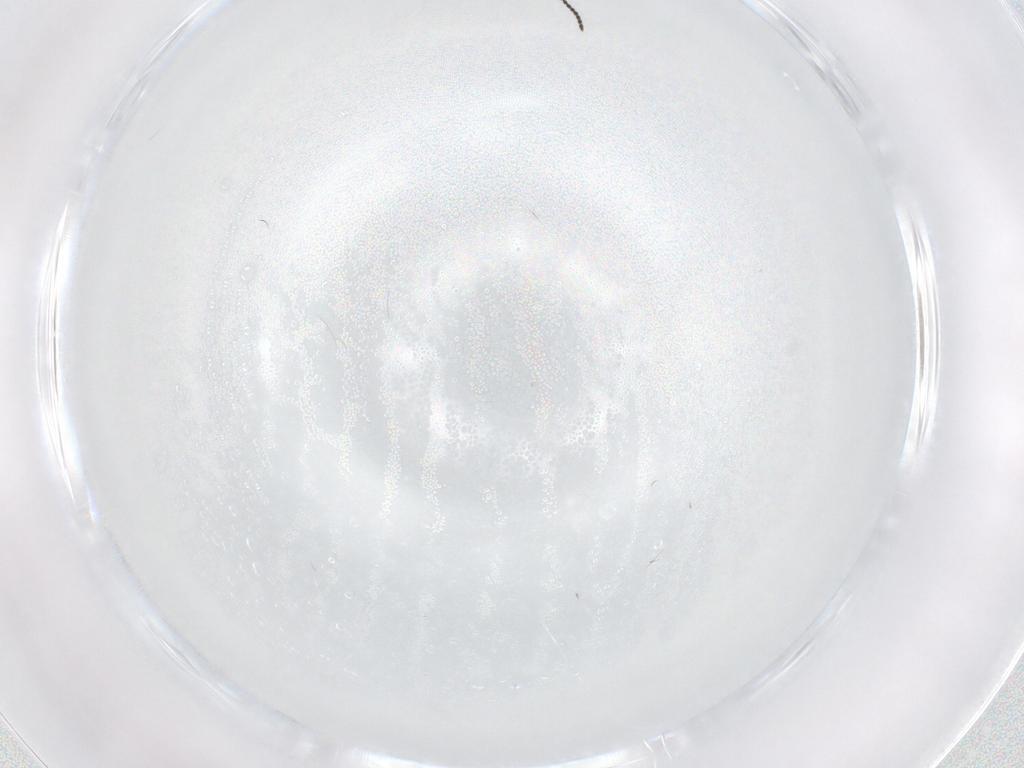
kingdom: Animalia
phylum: Arthropoda
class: Insecta
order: Hymenoptera
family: Scelionidae
